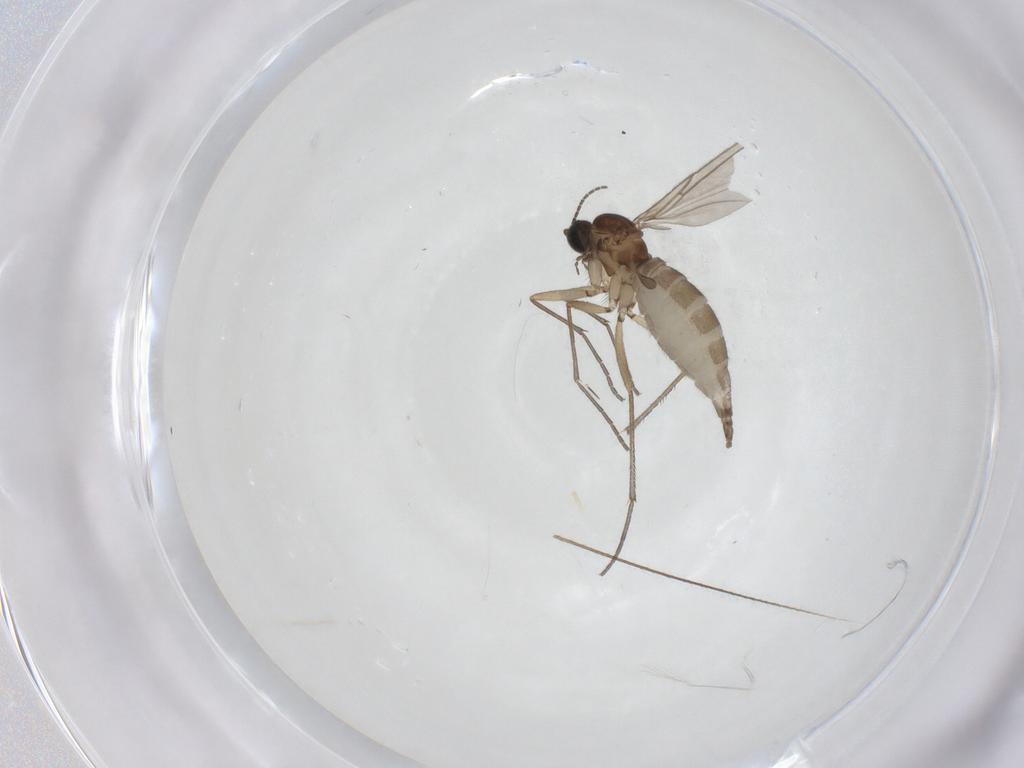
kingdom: Animalia
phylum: Arthropoda
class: Insecta
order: Diptera
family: Sciaridae
